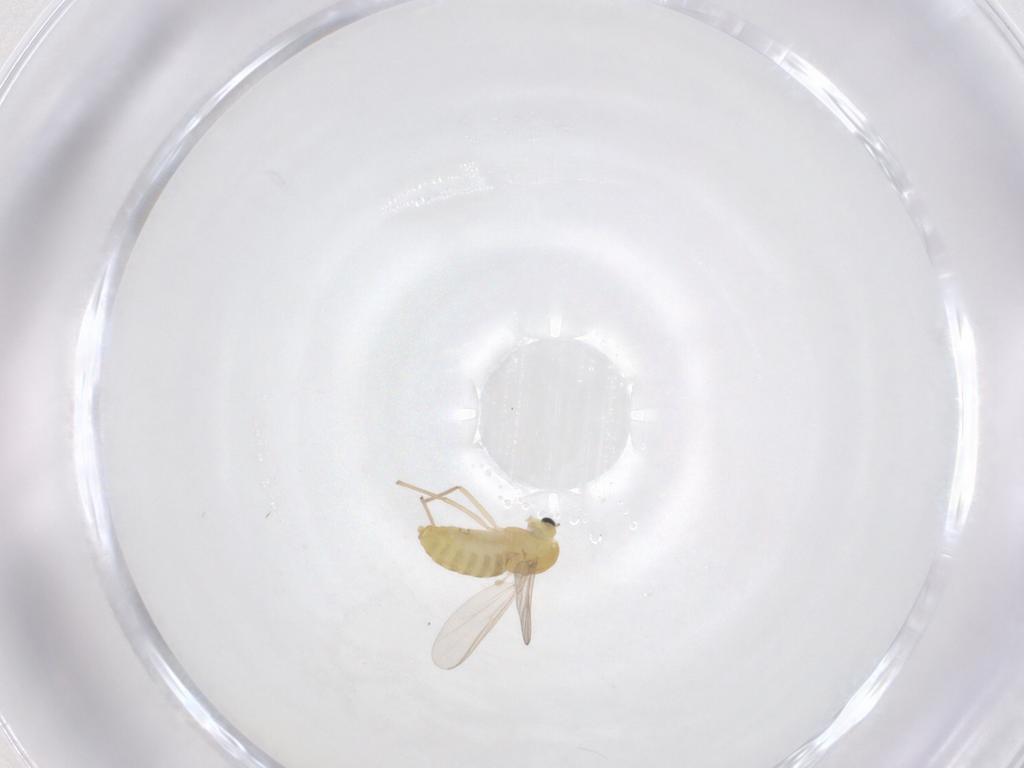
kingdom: Animalia
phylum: Arthropoda
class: Insecta
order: Diptera
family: Chironomidae
